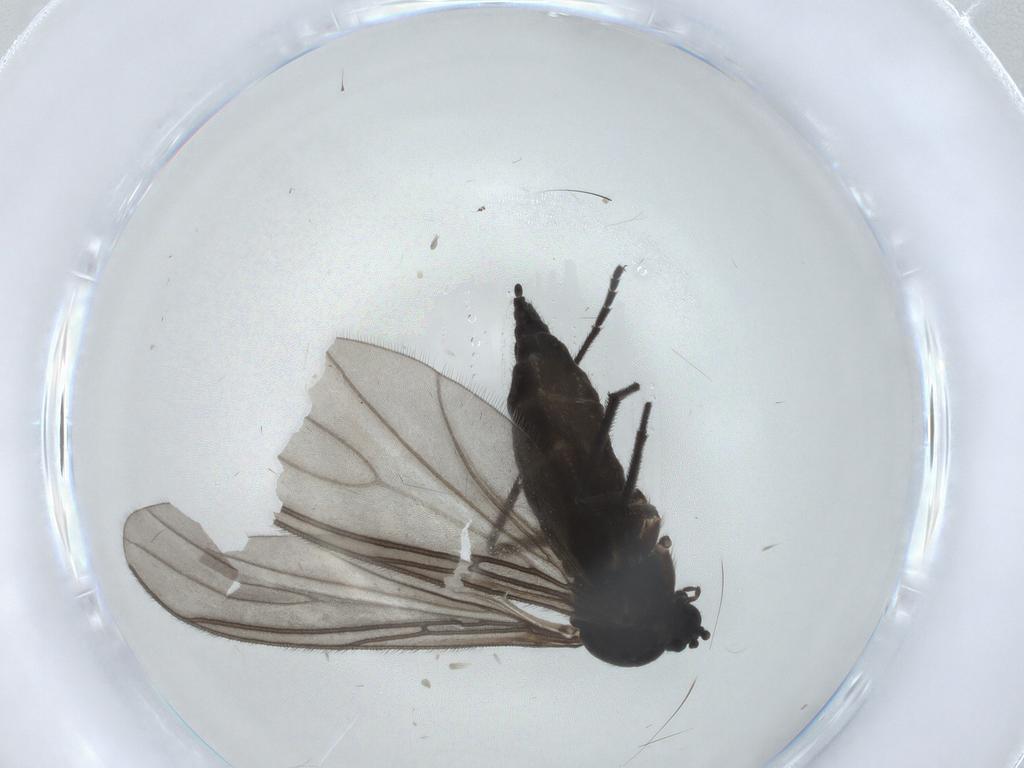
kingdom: Animalia
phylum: Arthropoda
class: Insecta
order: Diptera
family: Sciaridae
